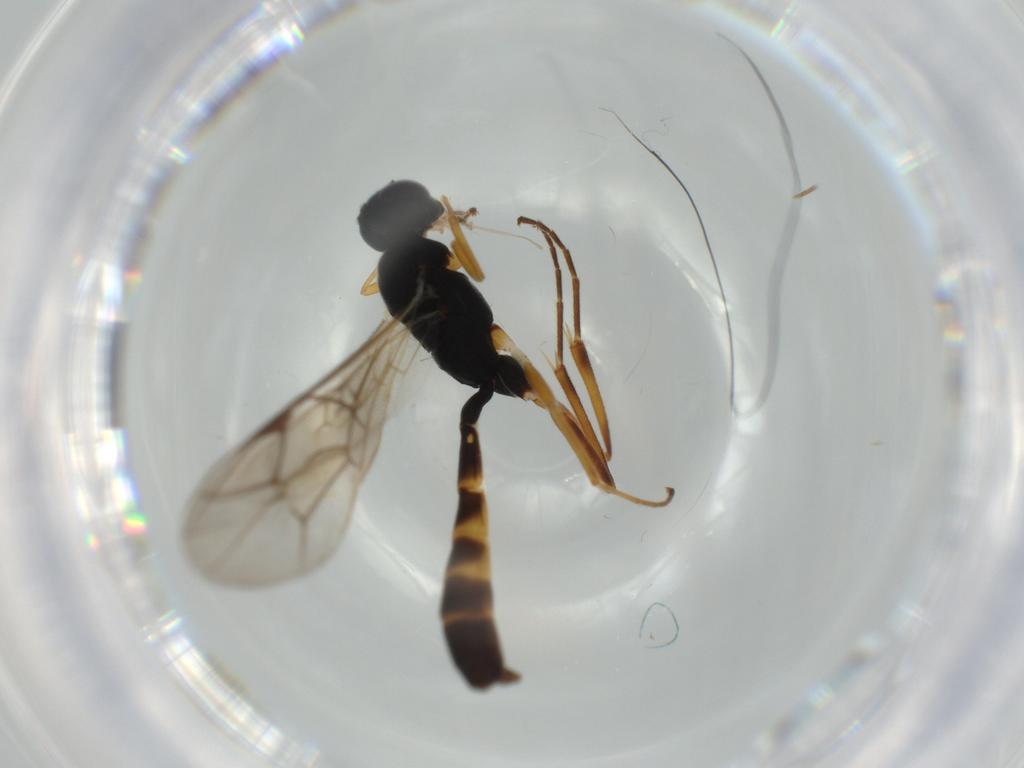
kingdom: Animalia
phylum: Arthropoda
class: Insecta
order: Hymenoptera
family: Ichneumonidae
